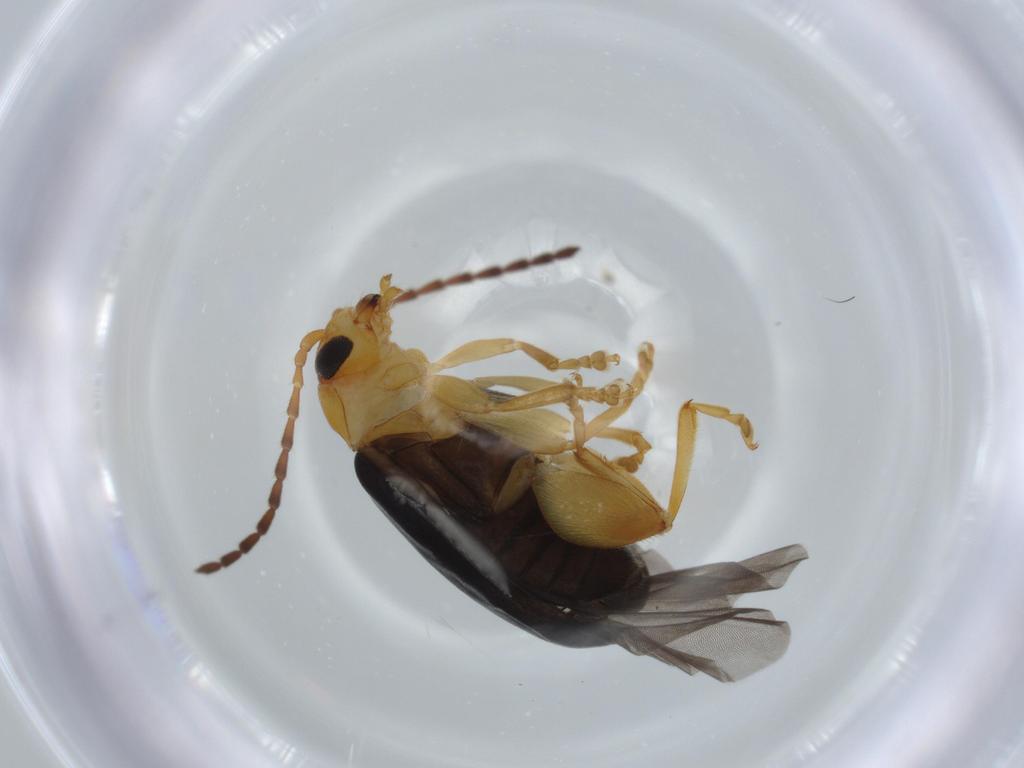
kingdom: Animalia
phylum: Arthropoda
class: Insecta
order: Coleoptera
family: Chrysomelidae
